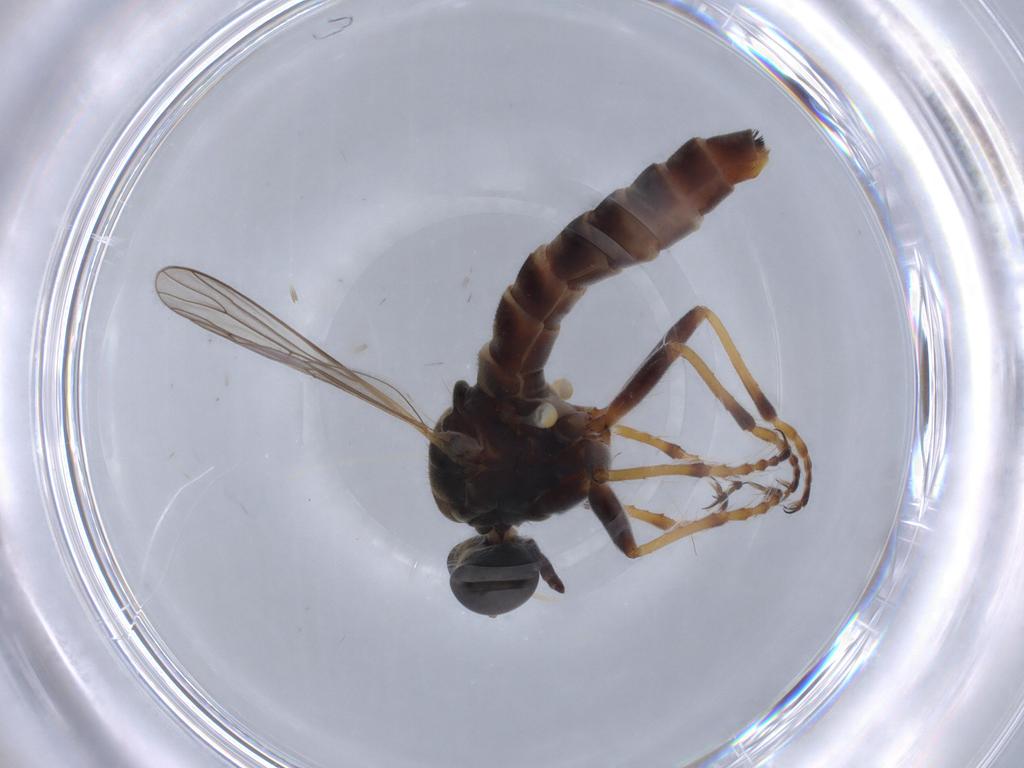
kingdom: Animalia
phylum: Arthropoda
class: Insecta
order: Diptera
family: Asilidae
